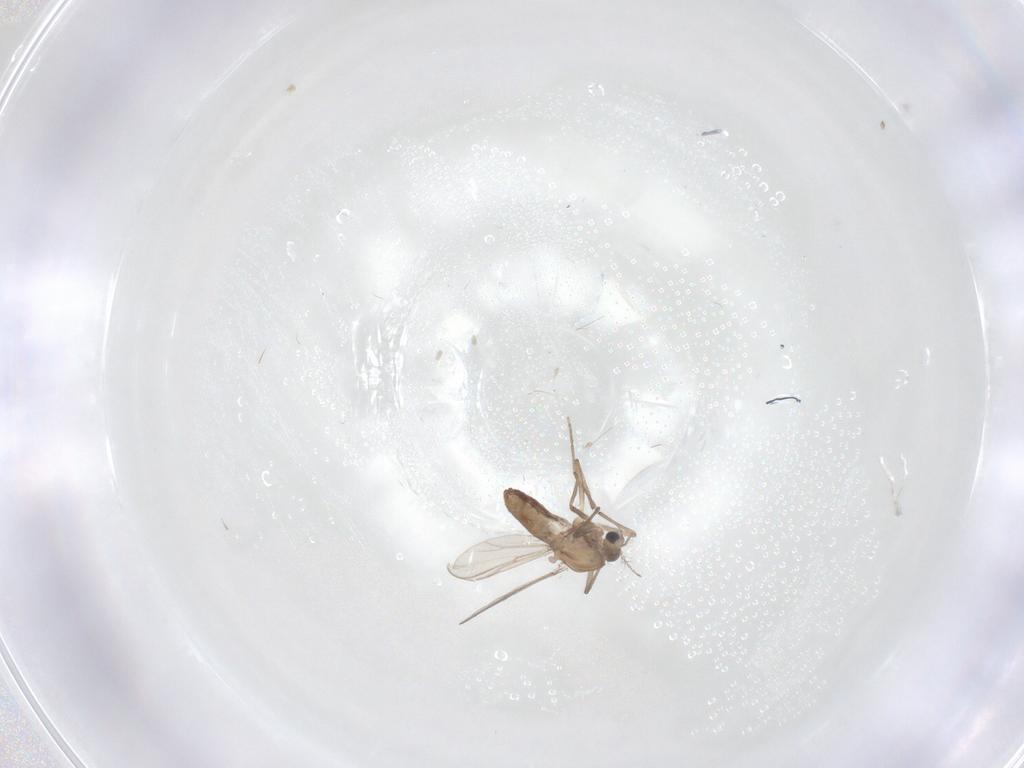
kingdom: Animalia
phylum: Arthropoda
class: Insecta
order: Diptera
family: Chironomidae
